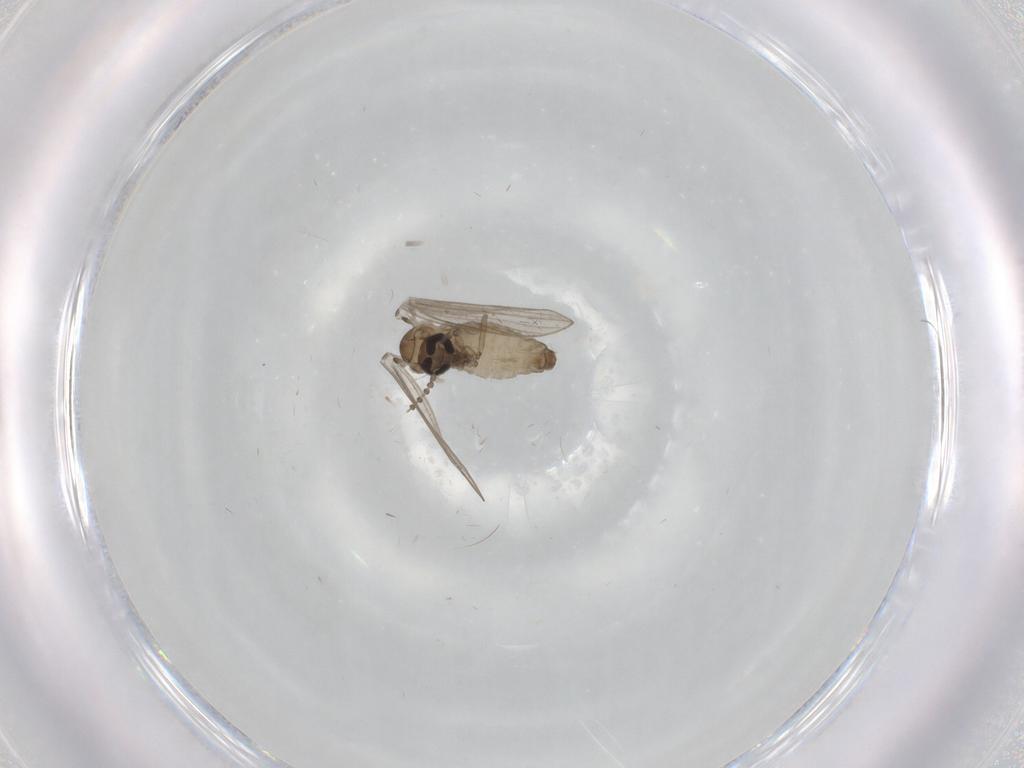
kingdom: Animalia
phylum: Arthropoda
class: Insecta
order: Diptera
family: Psychodidae
